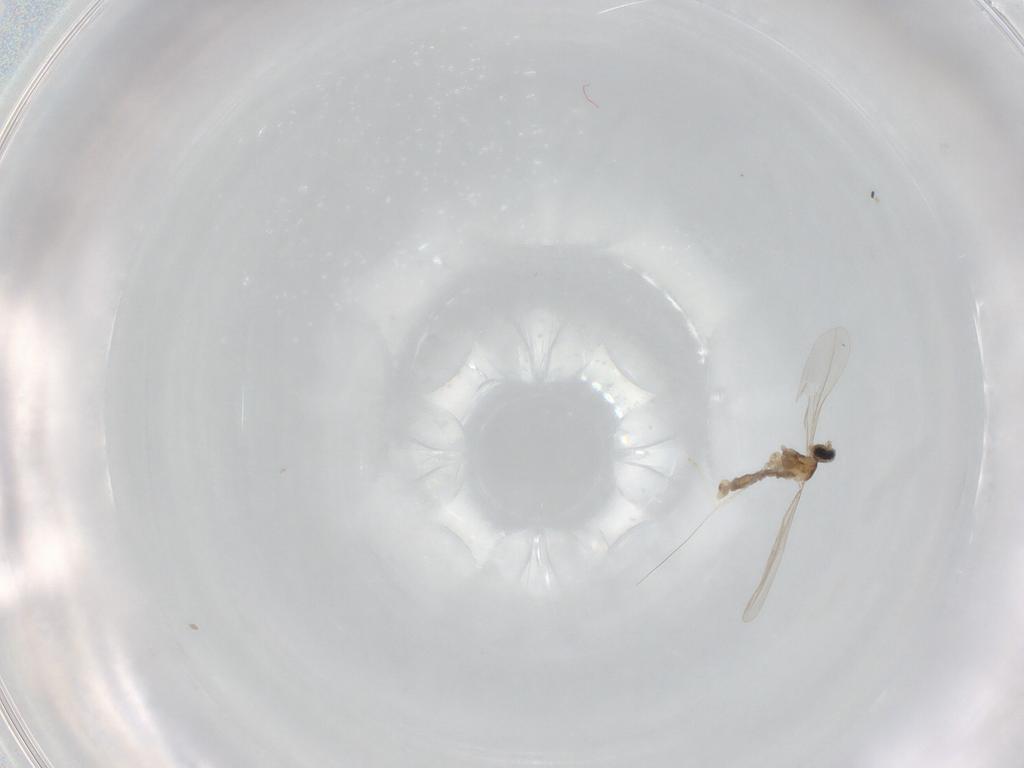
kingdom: Animalia
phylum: Arthropoda
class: Insecta
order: Diptera
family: Cecidomyiidae
